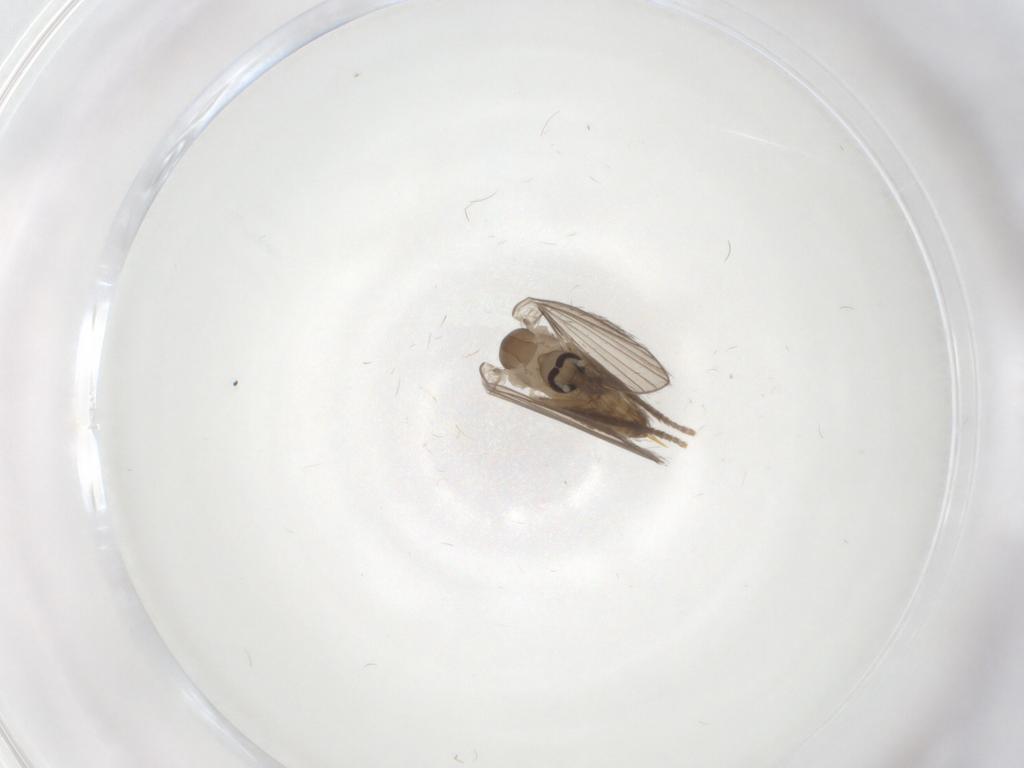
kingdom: Animalia
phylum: Arthropoda
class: Insecta
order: Diptera
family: Psychodidae
